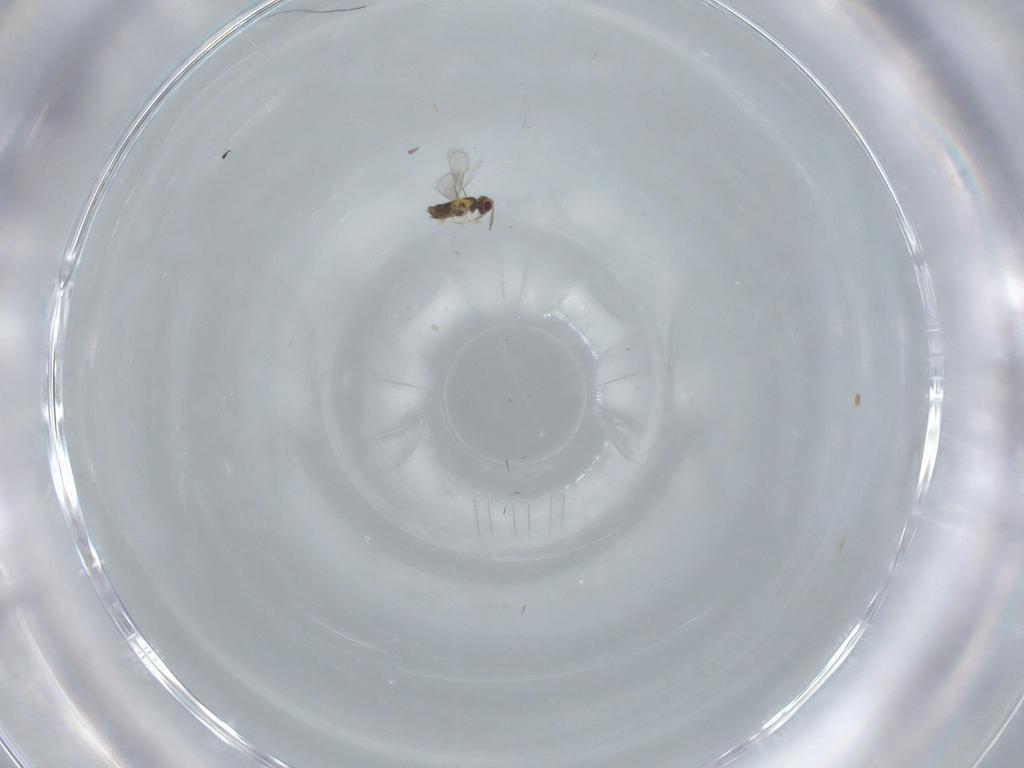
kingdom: Animalia
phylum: Arthropoda
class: Insecta
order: Hymenoptera
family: Aphelinidae
